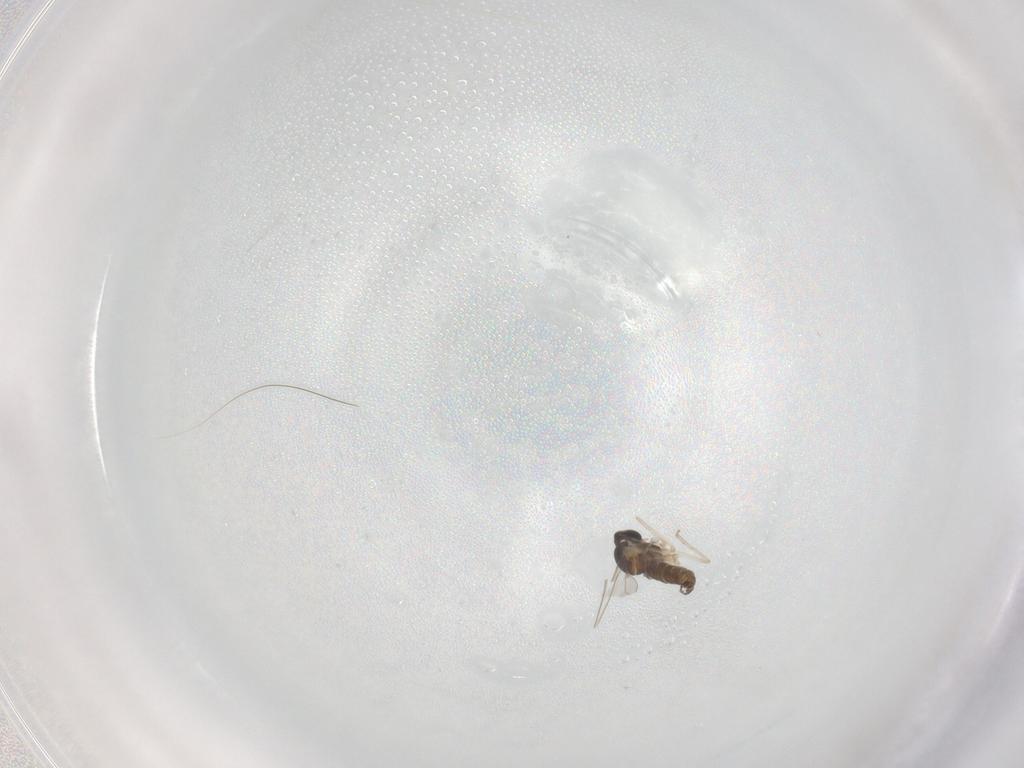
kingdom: Animalia
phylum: Arthropoda
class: Insecta
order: Diptera
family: Cecidomyiidae
